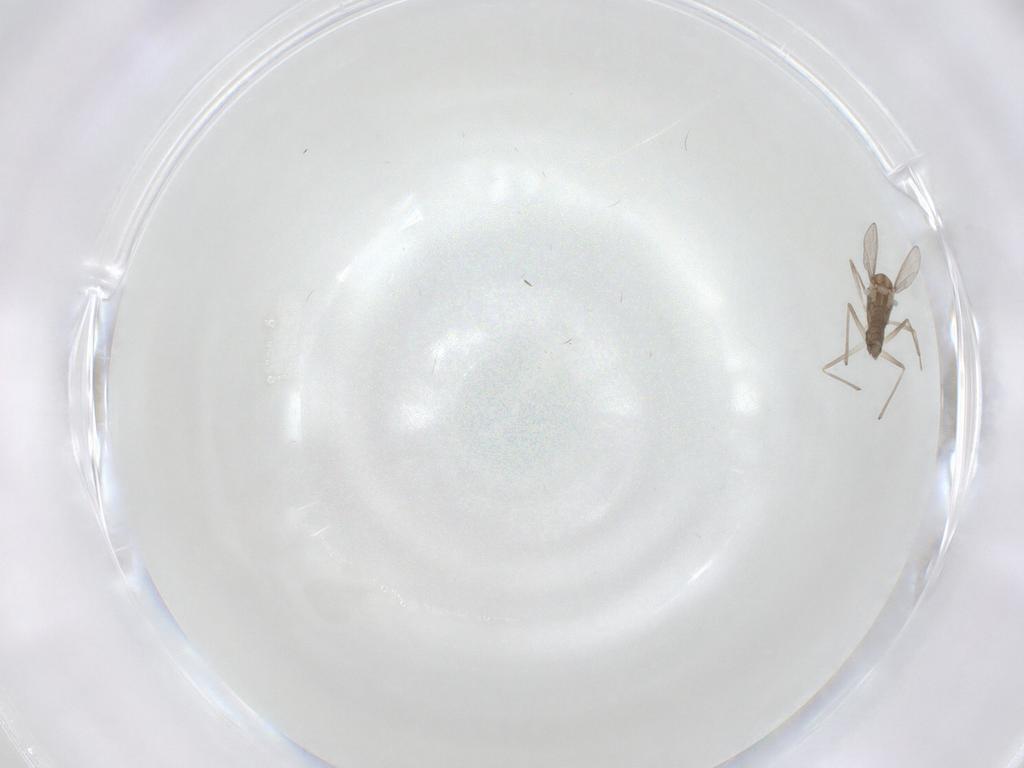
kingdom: Animalia
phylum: Arthropoda
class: Insecta
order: Diptera
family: Chironomidae
